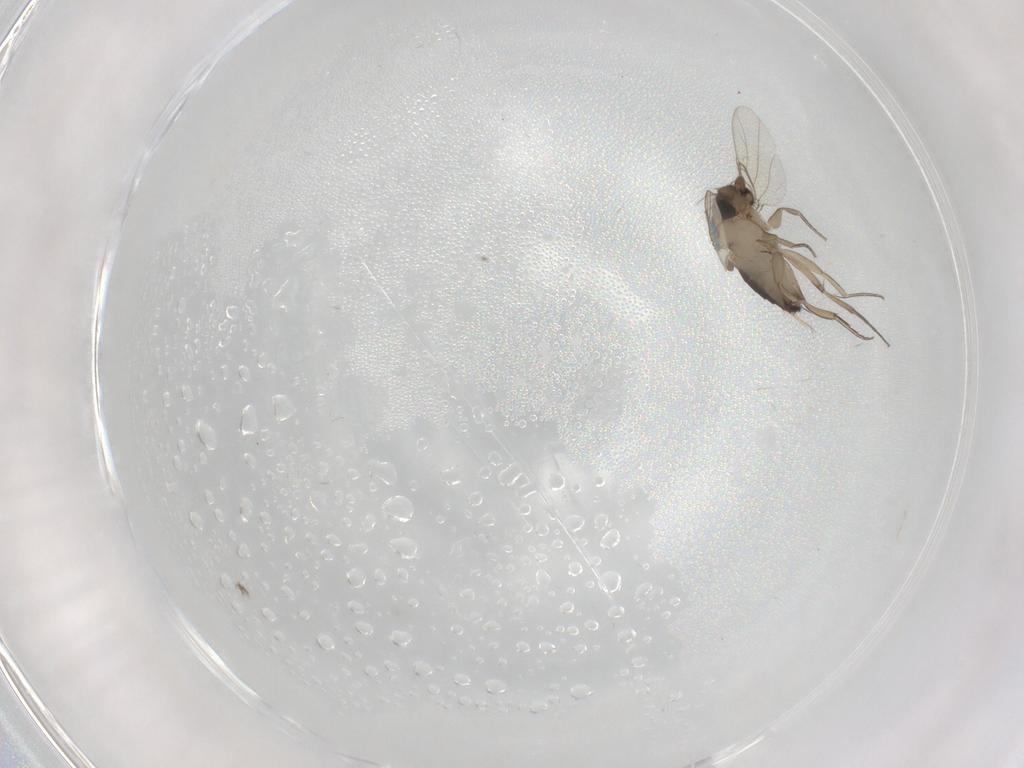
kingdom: Animalia
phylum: Arthropoda
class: Insecta
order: Diptera
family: Phoridae
